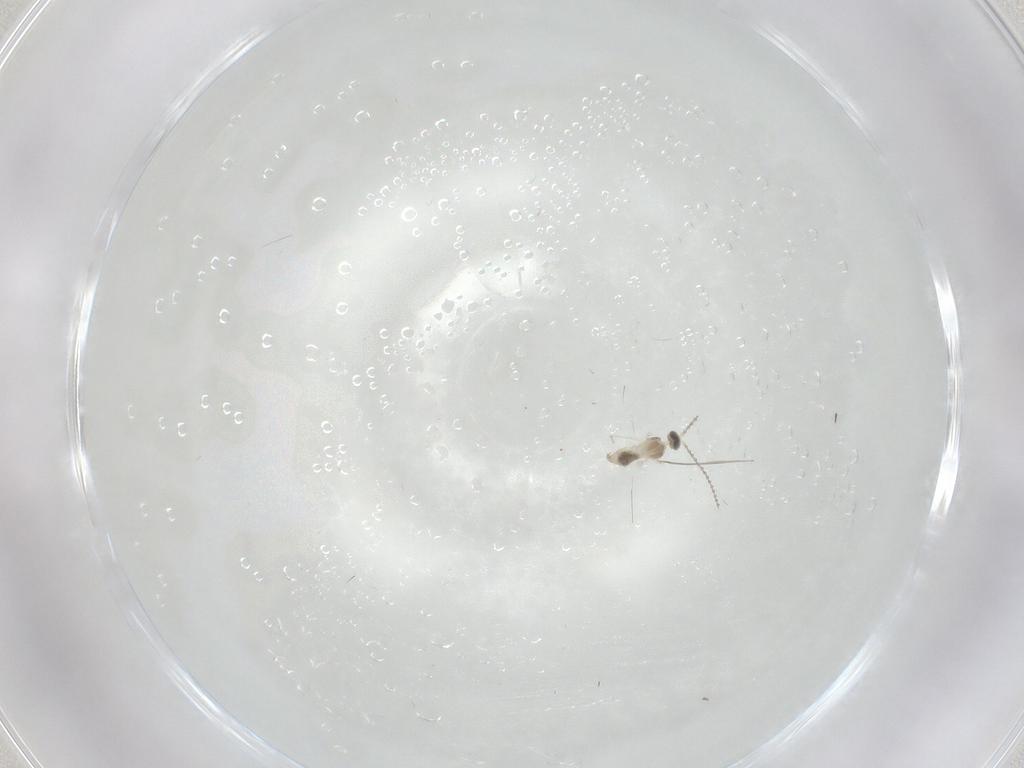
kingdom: Animalia
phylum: Arthropoda
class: Insecta
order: Diptera
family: Cecidomyiidae
